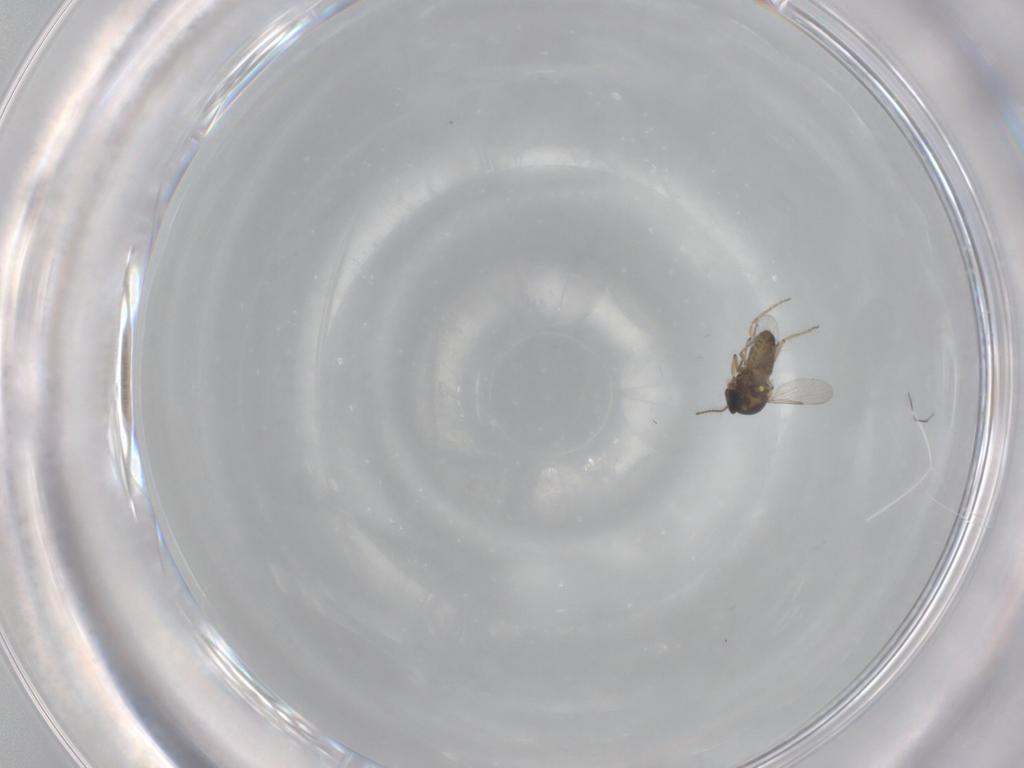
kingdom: Animalia
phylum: Arthropoda
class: Insecta
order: Diptera
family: Ceratopogonidae
